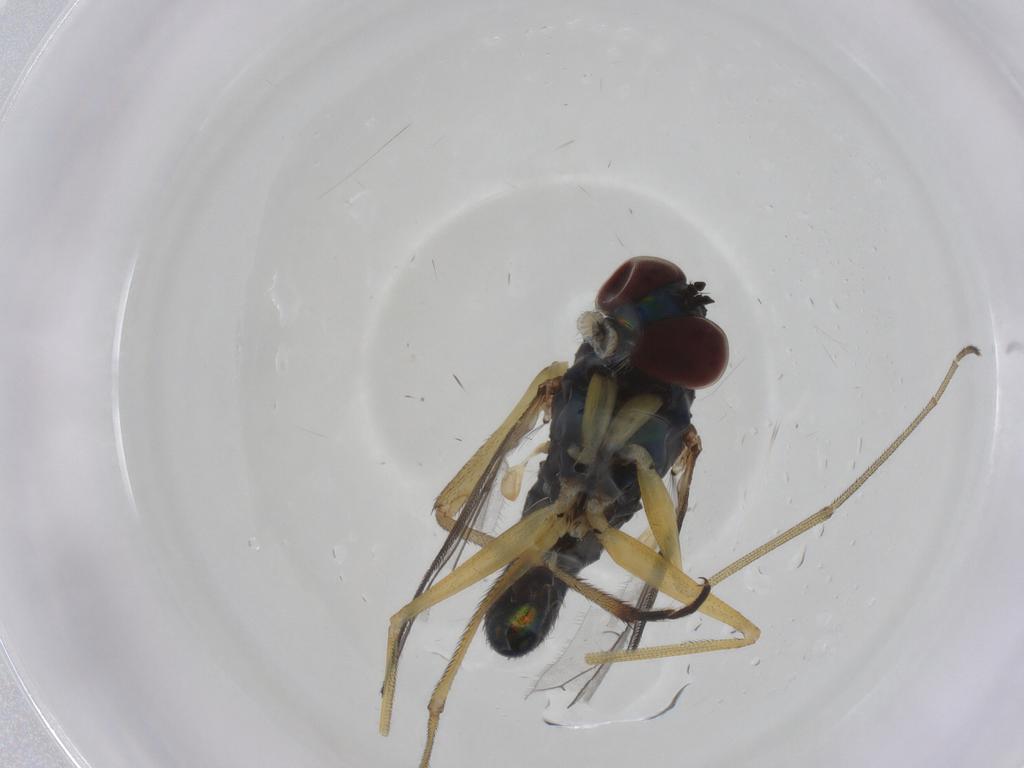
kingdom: Animalia
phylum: Arthropoda
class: Insecta
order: Diptera
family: Dolichopodidae
